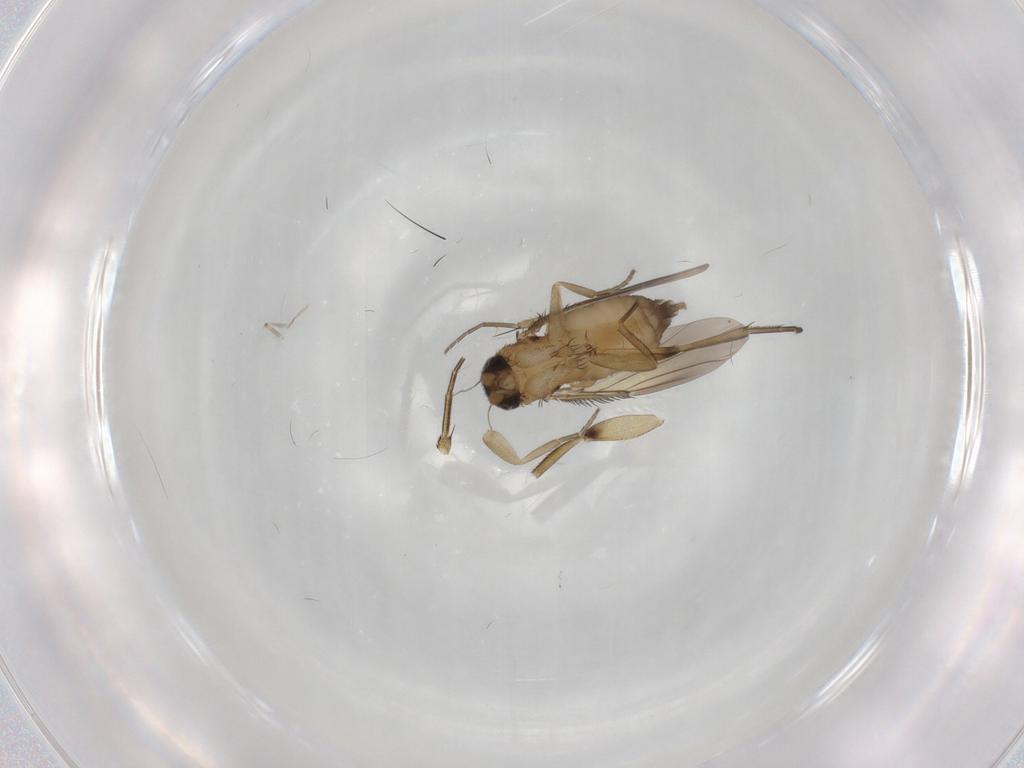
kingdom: Animalia
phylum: Arthropoda
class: Insecta
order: Diptera
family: Phoridae
